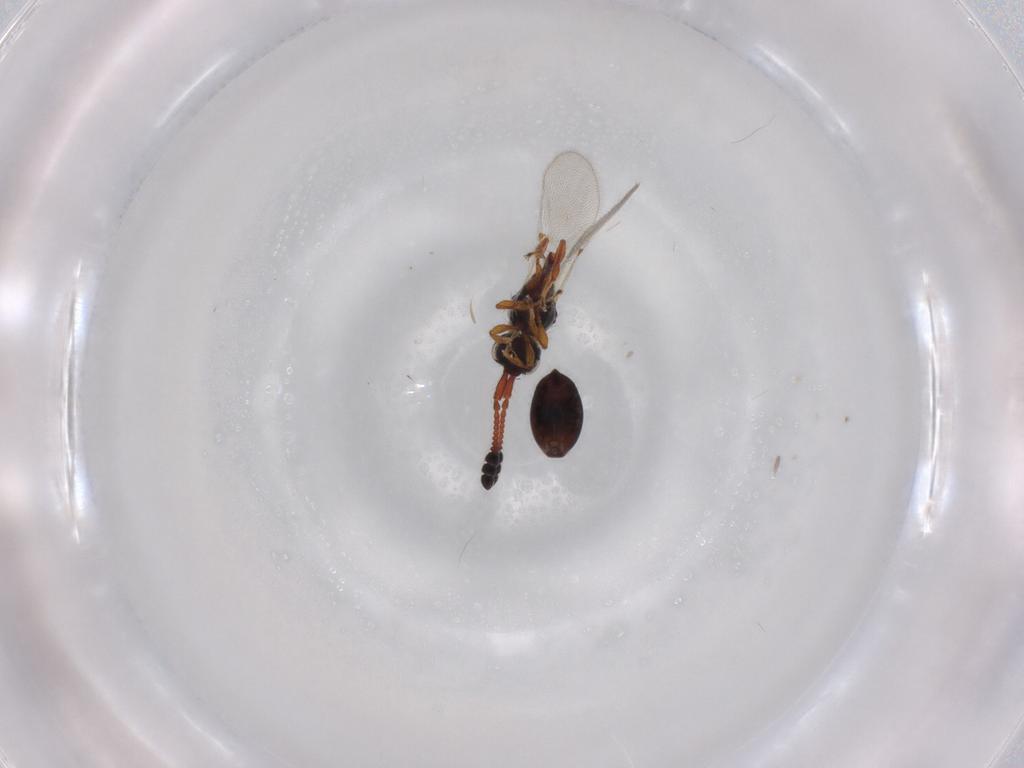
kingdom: Animalia
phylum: Arthropoda
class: Insecta
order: Hymenoptera
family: Diapriidae
